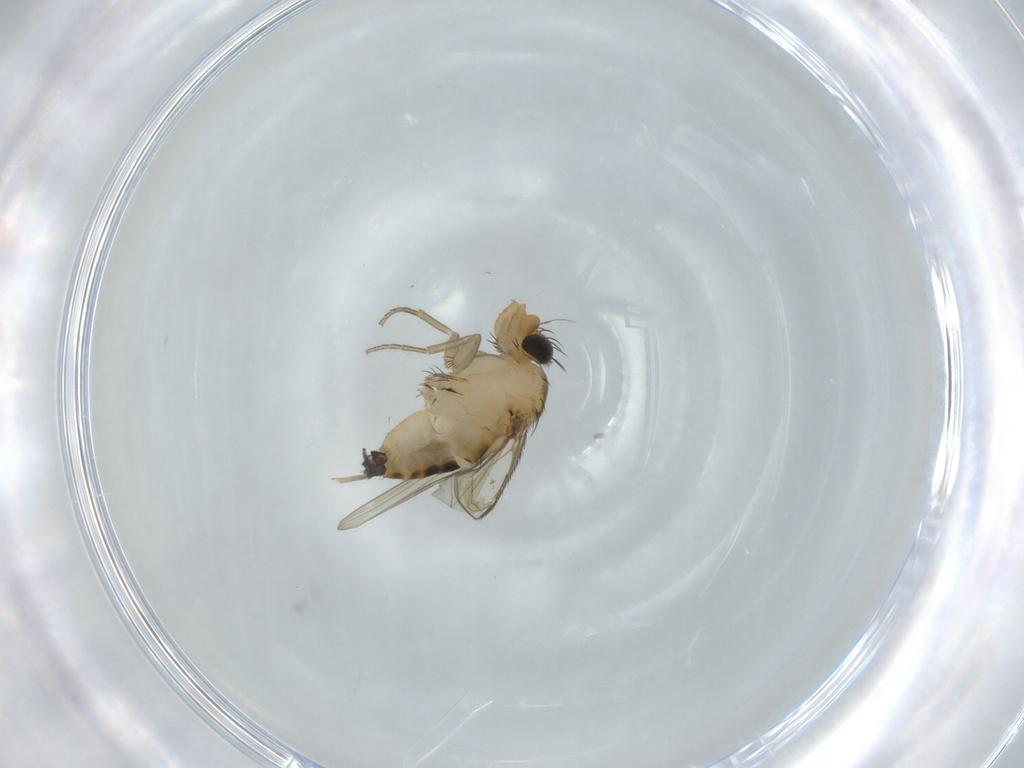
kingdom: Animalia
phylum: Arthropoda
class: Insecta
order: Diptera
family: Phoridae
